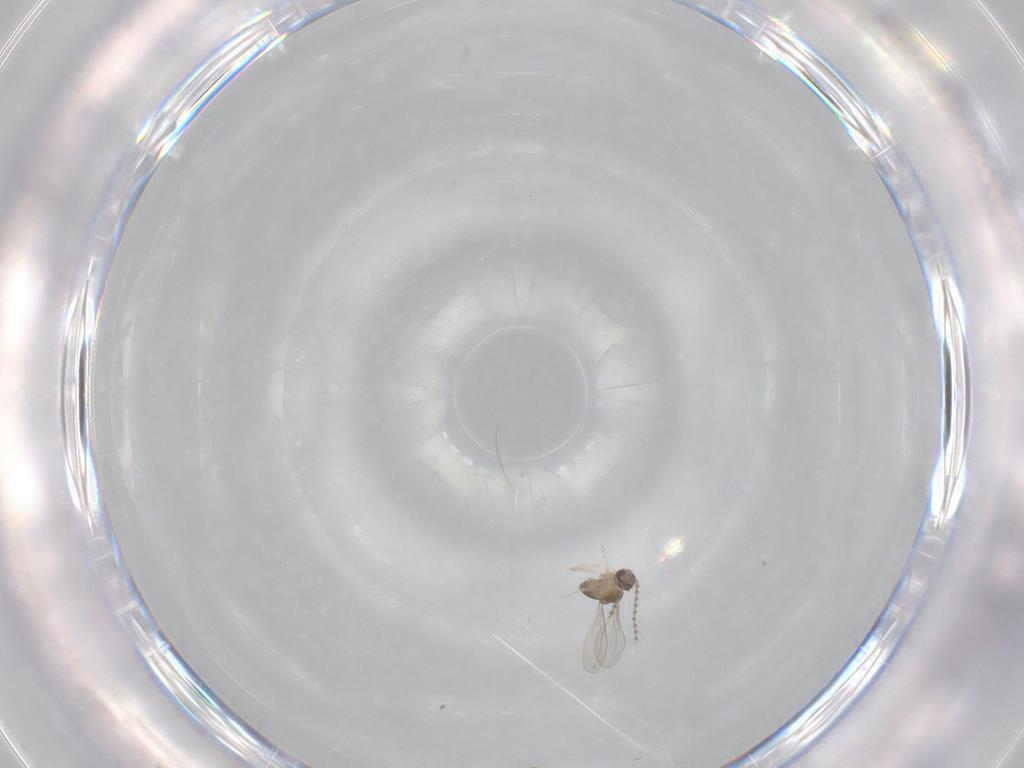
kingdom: Animalia
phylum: Arthropoda
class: Insecta
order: Diptera
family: Cecidomyiidae
